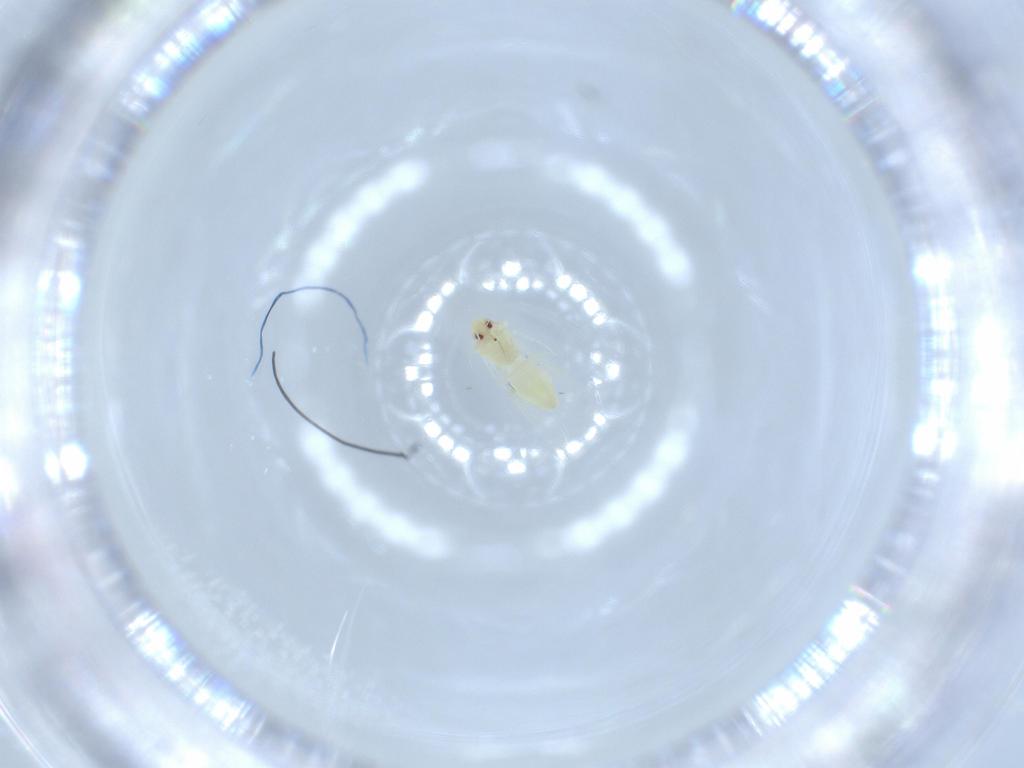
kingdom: Animalia
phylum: Arthropoda
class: Insecta
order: Hemiptera
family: Aleyrodidae
